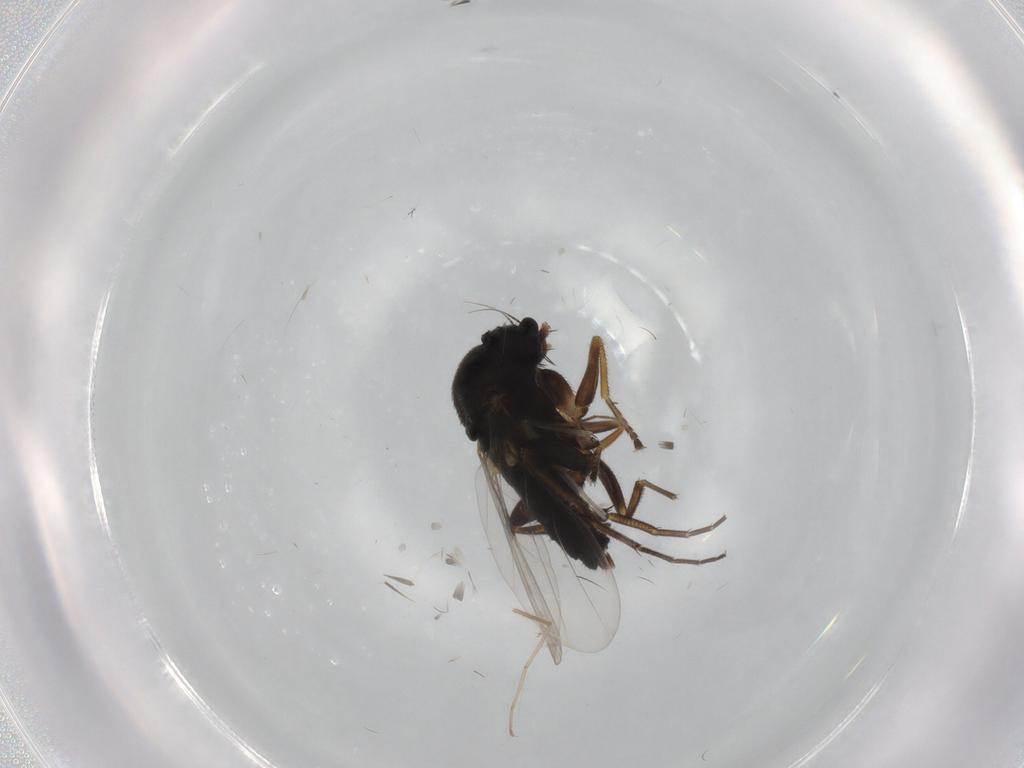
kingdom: Animalia
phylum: Arthropoda
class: Insecta
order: Diptera
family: Phoridae
